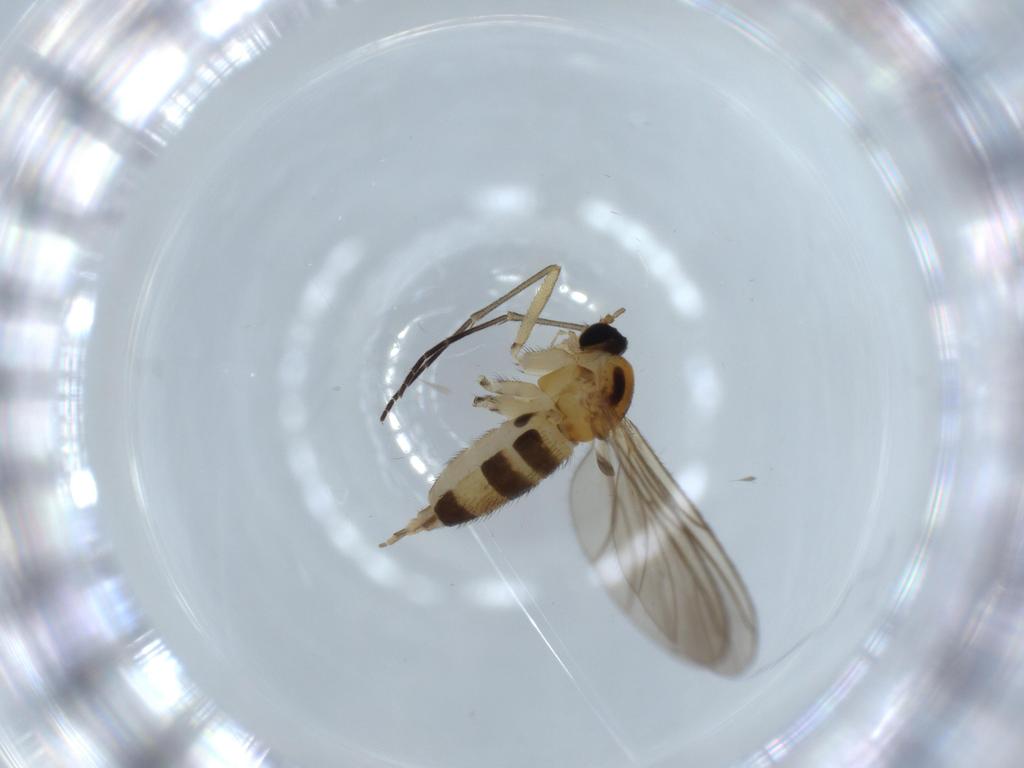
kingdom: Animalia
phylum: Arthropoda
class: Insecta
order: Diptera
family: Sciaridae
